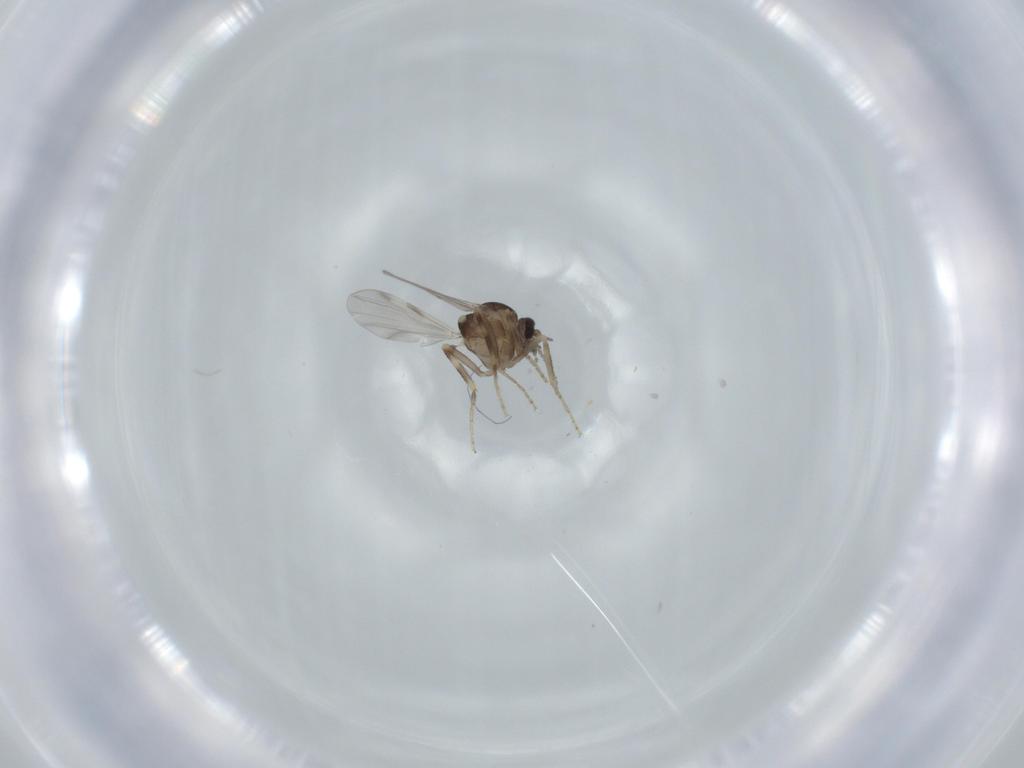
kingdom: Animalia
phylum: Arthropoda
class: Insecta
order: Diptera
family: Ceratopogonidae
